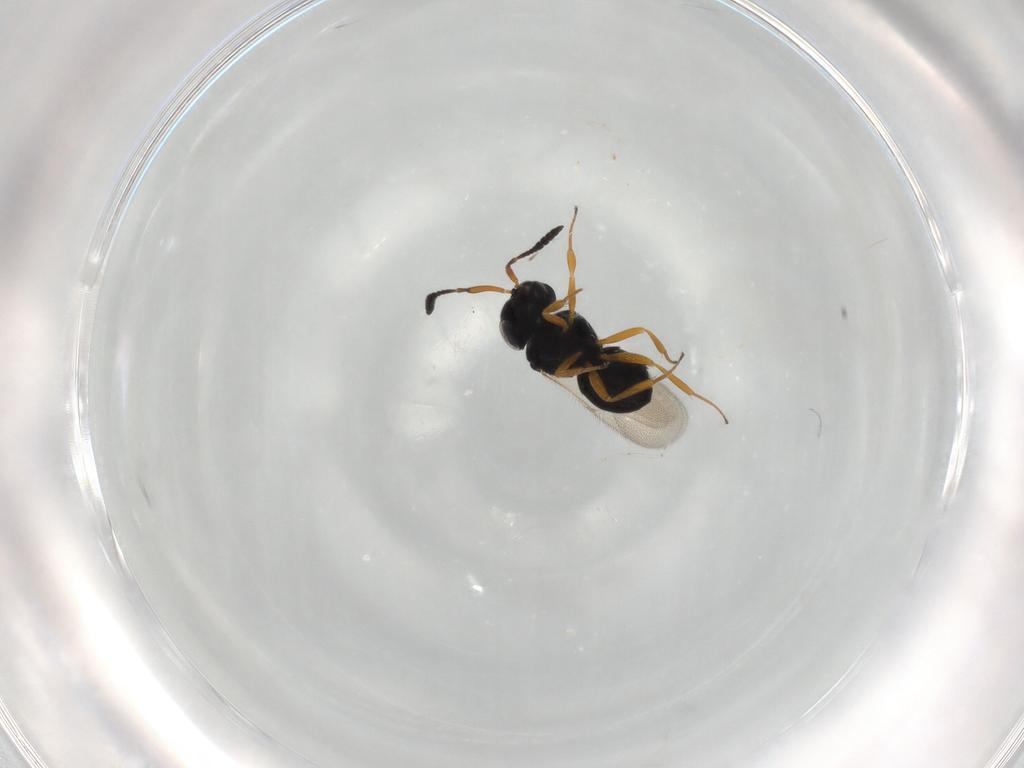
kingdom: Animalia
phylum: Arthropoda
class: Insecta
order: Hymenoptera
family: Scelionidae
